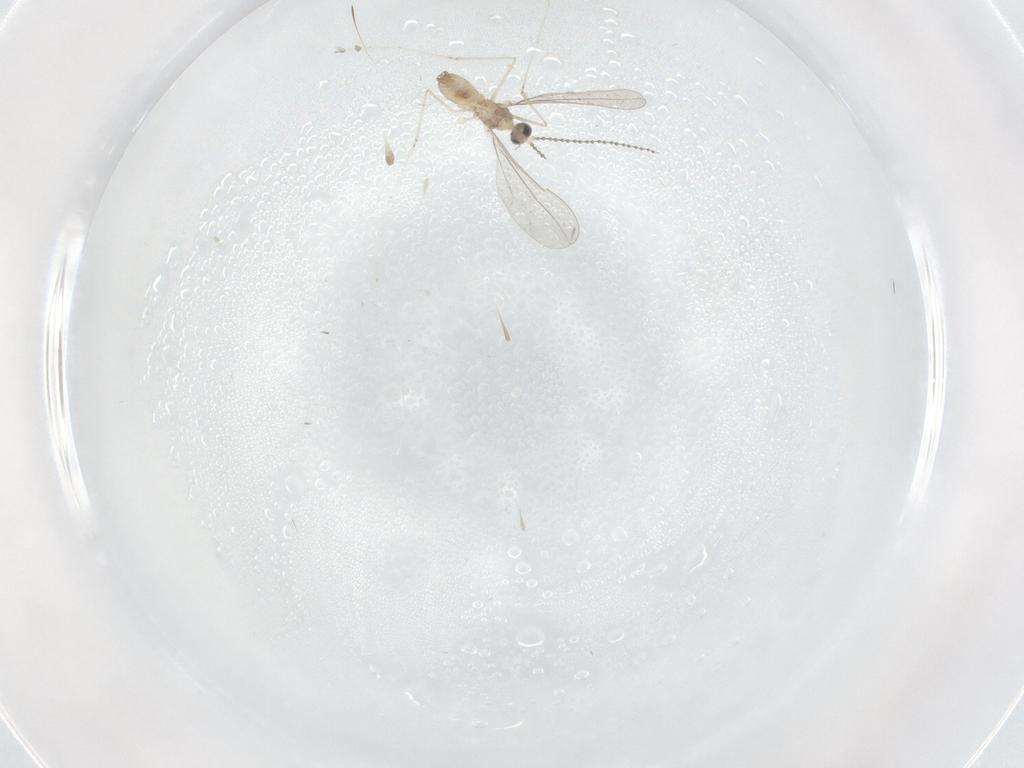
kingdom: Animalia
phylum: Arthropoda
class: Insecta
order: Diptera
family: Cecidomyiidae
